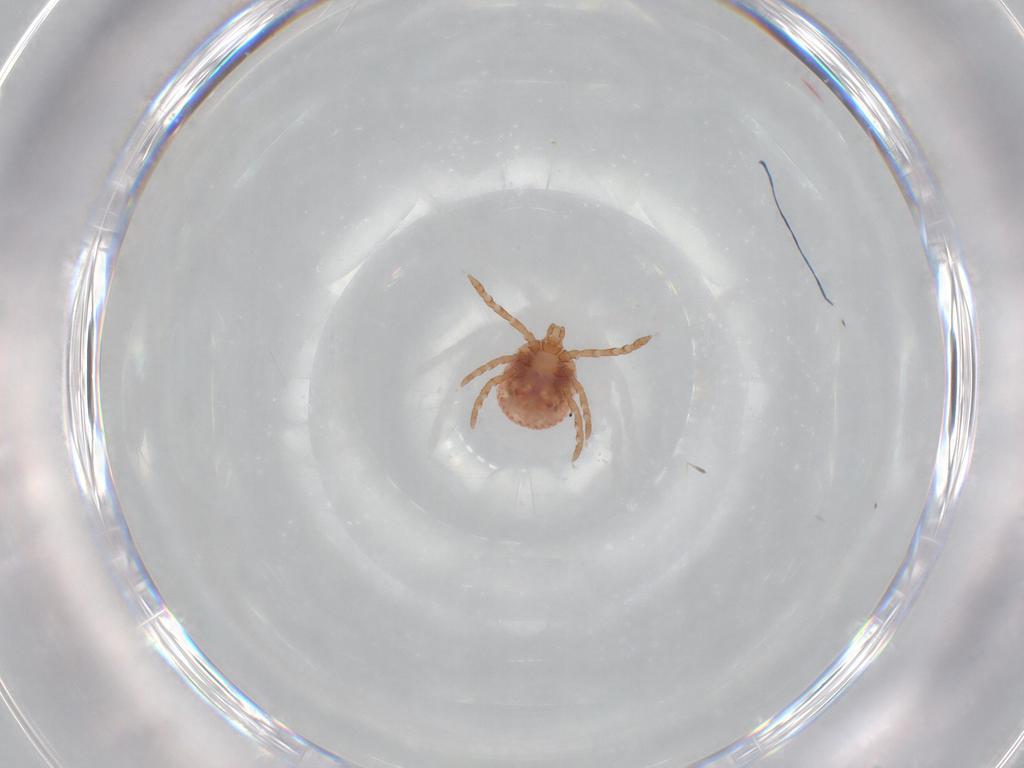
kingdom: Animalia
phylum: Arthropoda
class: Arachnida
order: Ixodida
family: Ixodidae
